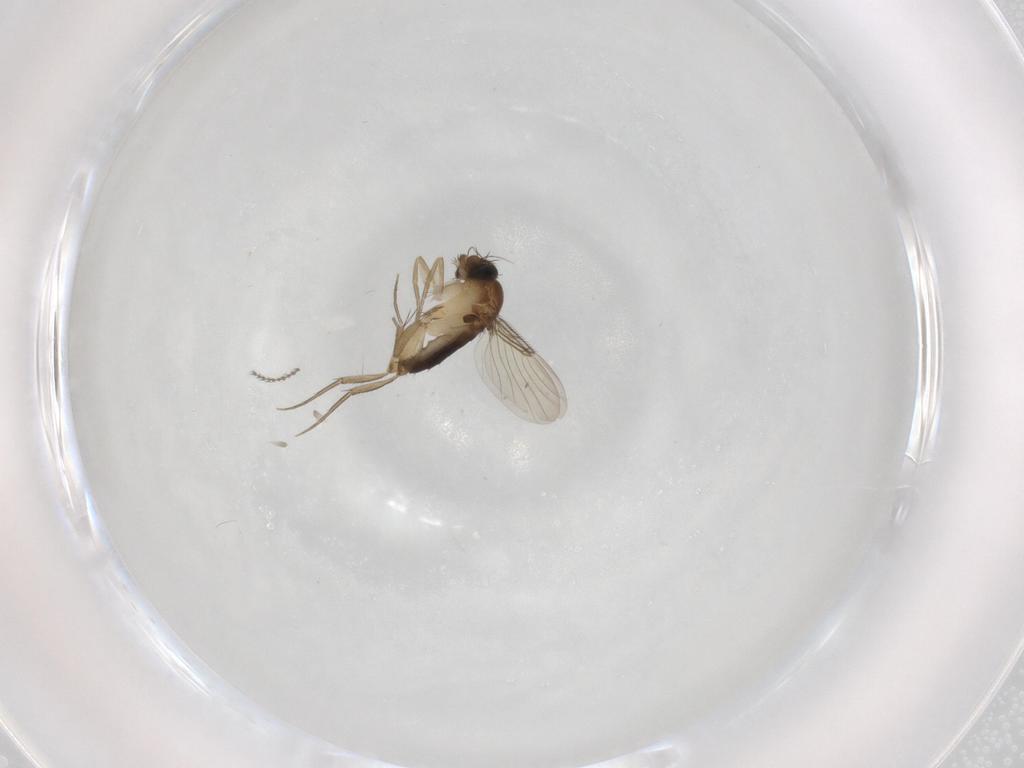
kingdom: Animalia
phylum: Arthropoda
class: Insecta
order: Diptera
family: Phoridae
